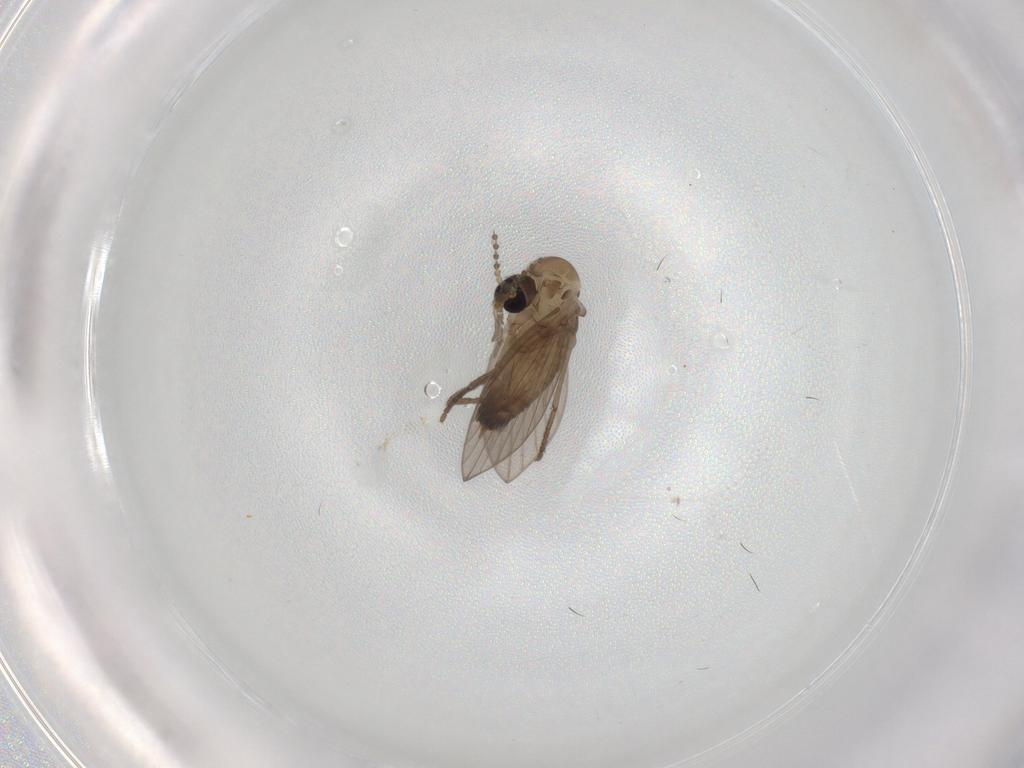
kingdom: Animalia
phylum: Arthropoda
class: Insecta
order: Diptera
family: Psychodidae
